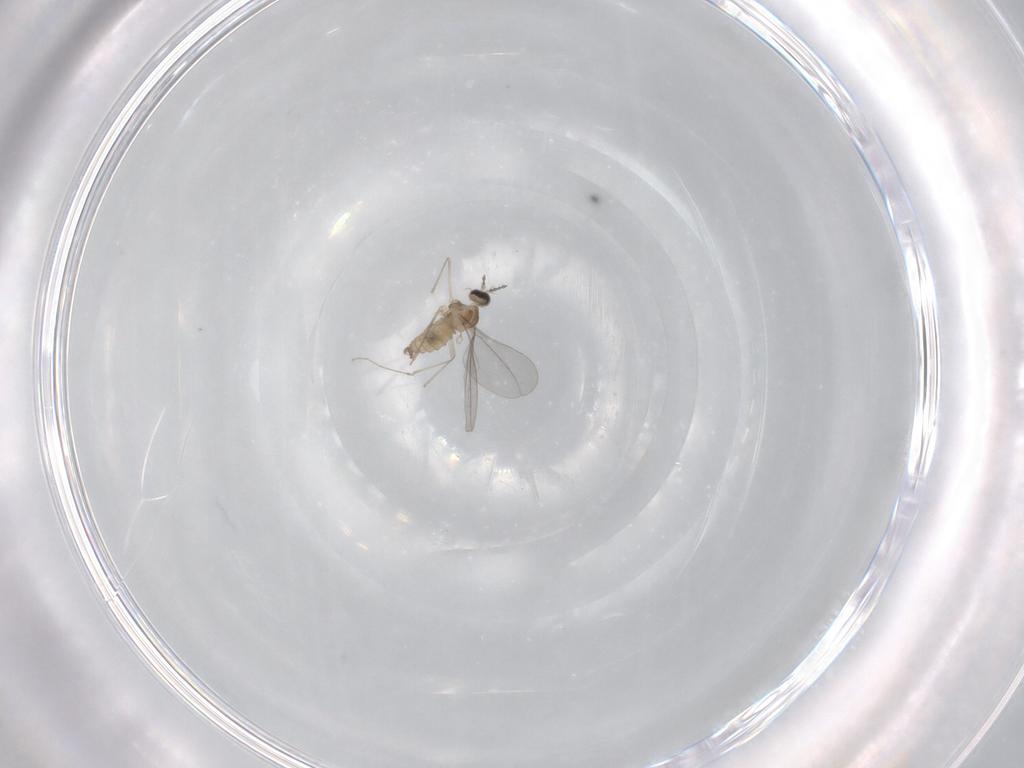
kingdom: Animalia
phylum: Arthropoda
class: Insecta
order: Diptera
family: Cecidomyiidae
